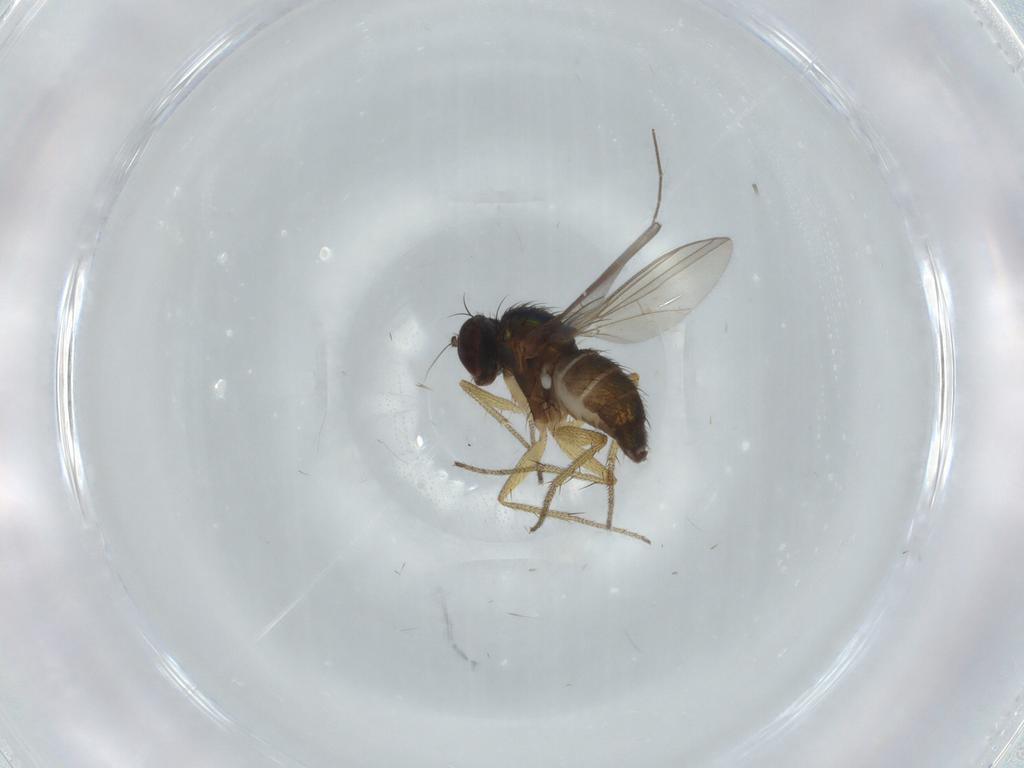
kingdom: Animalia
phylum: Arthropoda
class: Insecta
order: Diptera
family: Dolichopodidae
